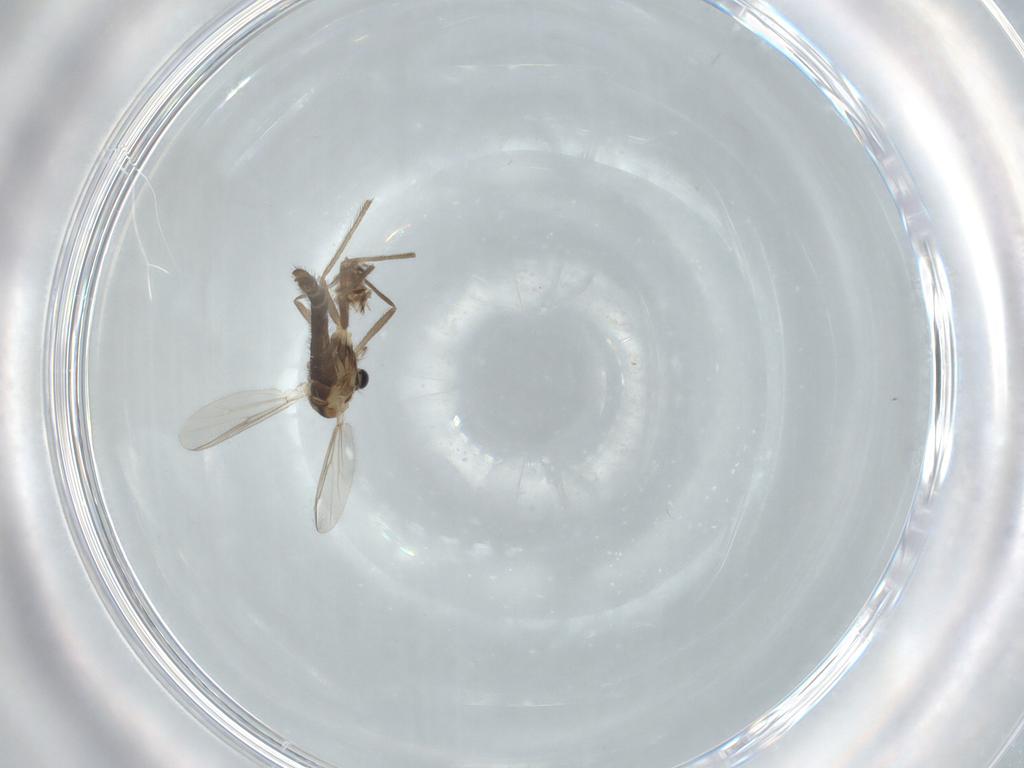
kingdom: Animalia
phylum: Arthropoda
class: Insecta
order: Diptera
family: Chironomidae
